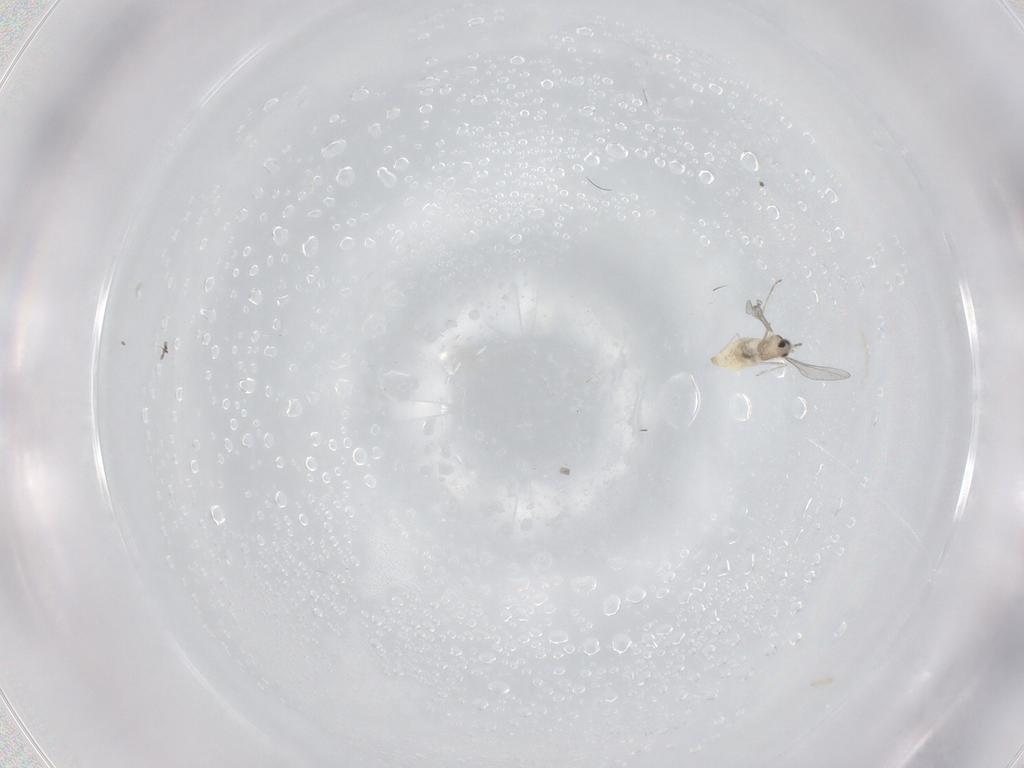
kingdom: Animalia
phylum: Arthropoda
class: Insecta
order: Diptera
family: Cecidomyiidae
